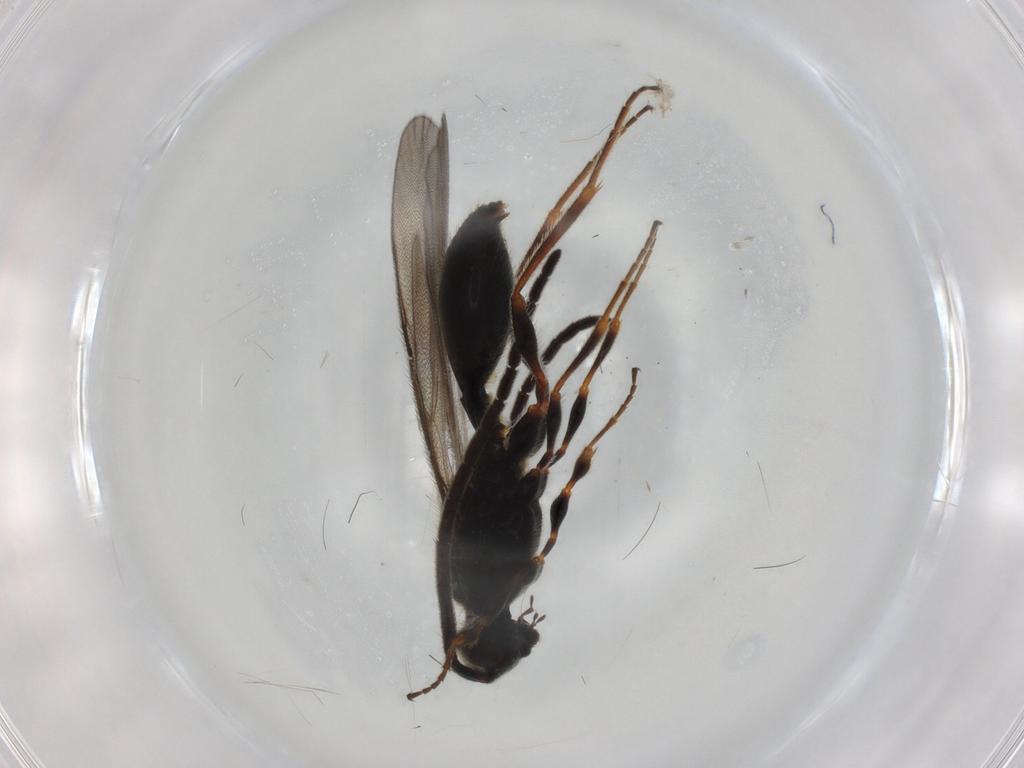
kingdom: Animalia
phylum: Arthropoda
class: Insecta
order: Hymenoptera
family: Diapriidae
